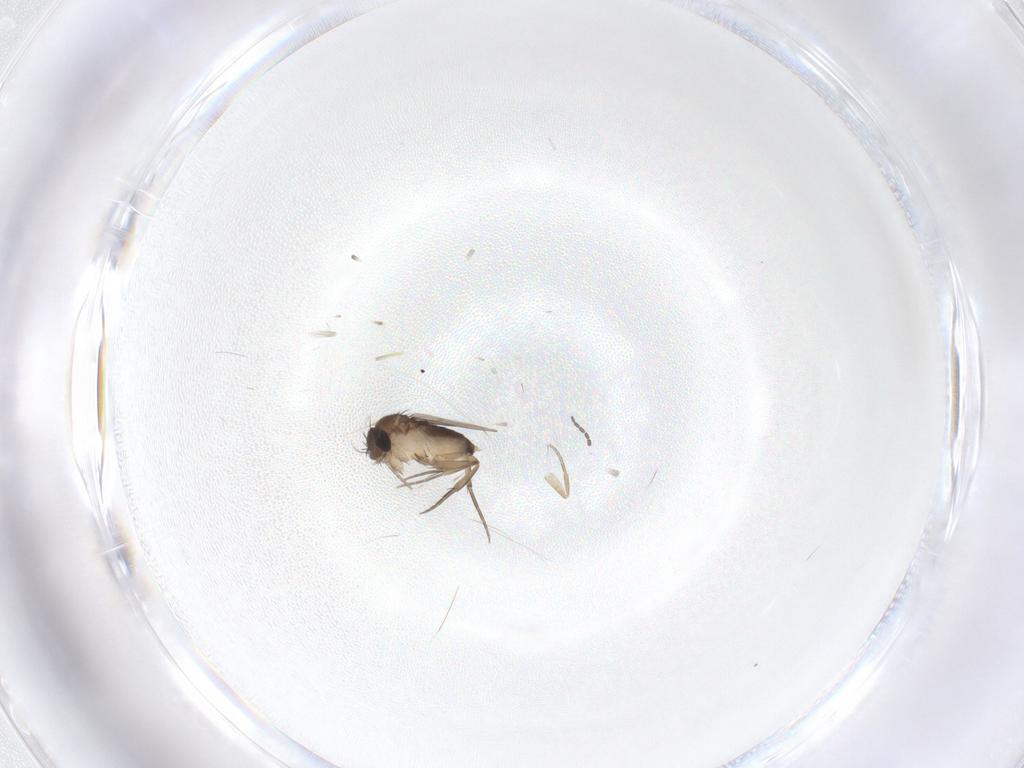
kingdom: Animalia
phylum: Arthropoda
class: Insecta
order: Diptera
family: Phoridae
